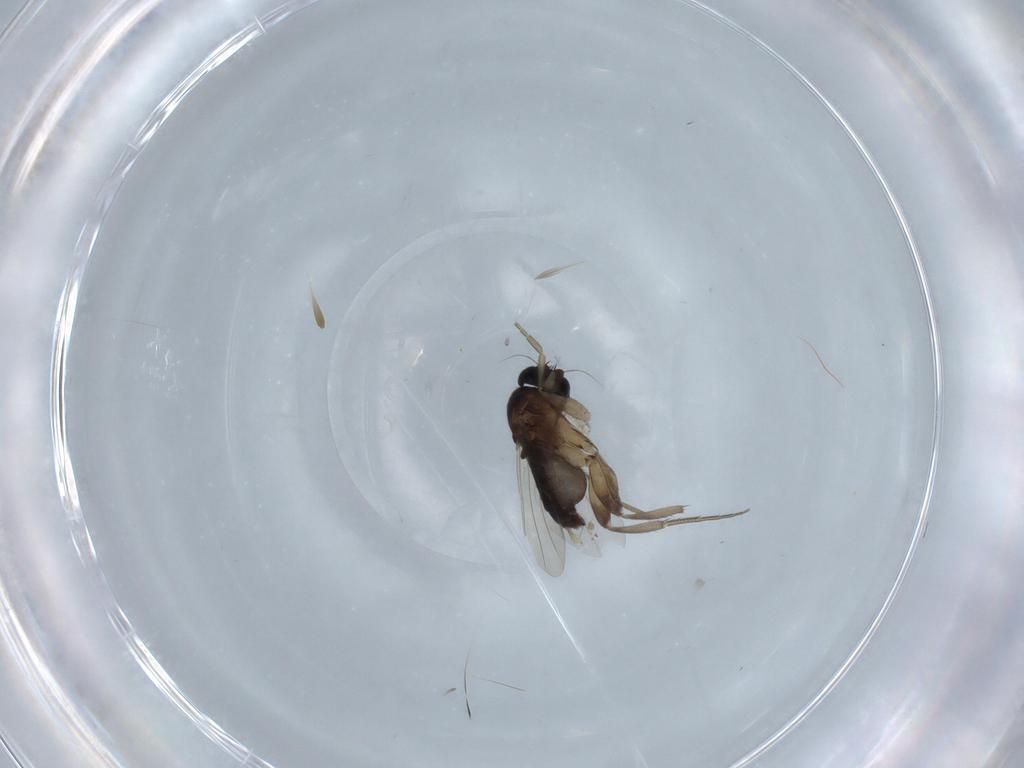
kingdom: Animalia
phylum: Arthropoda
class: Insecta
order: Diptera
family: Phoridae
